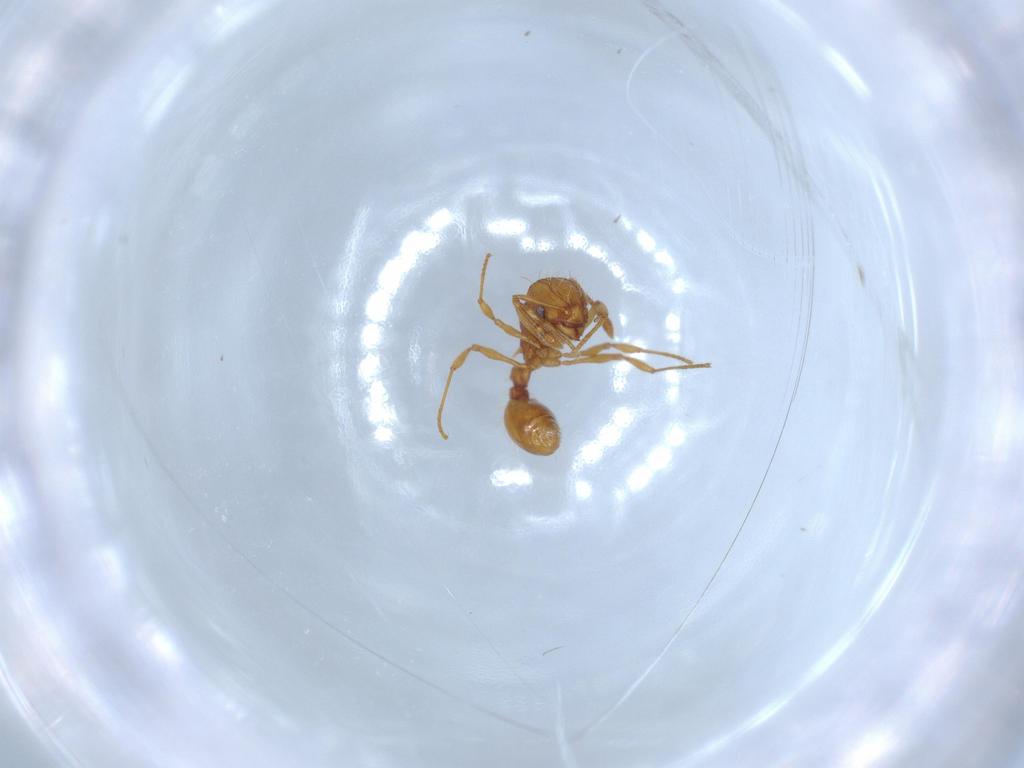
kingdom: Animalia
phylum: Arthropoda
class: Insecta
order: Hymenoptera
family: Formicidae
